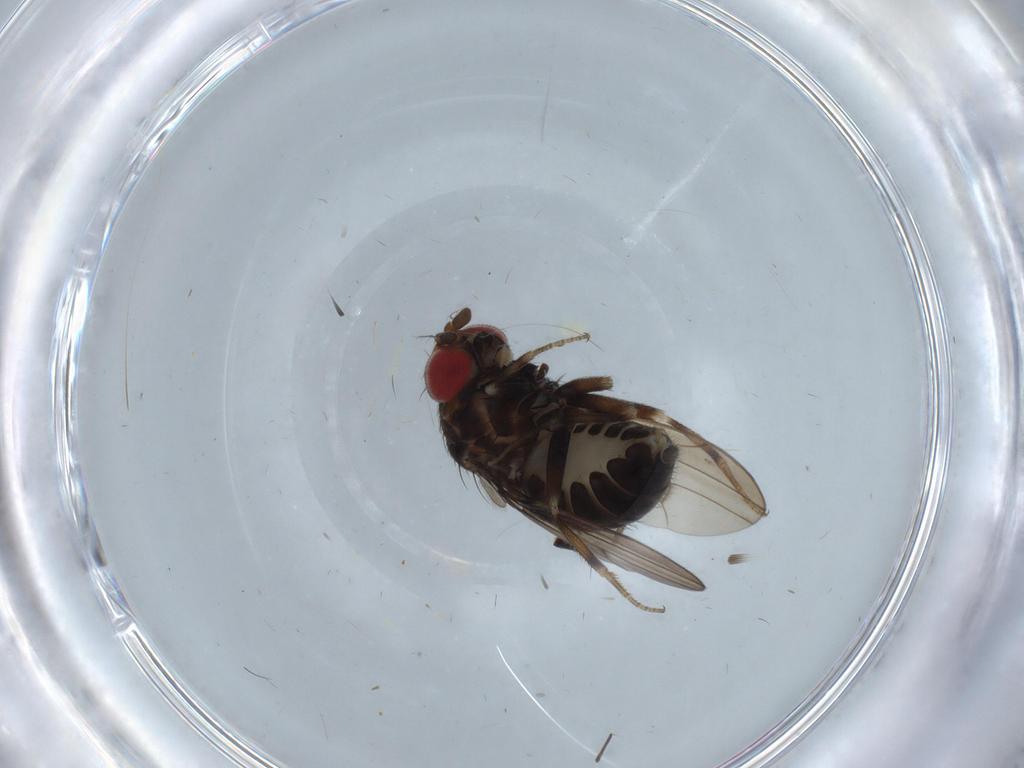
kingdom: Animalia
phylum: Arthropoda
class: Insecta
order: Diptera
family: Drosophilidae
